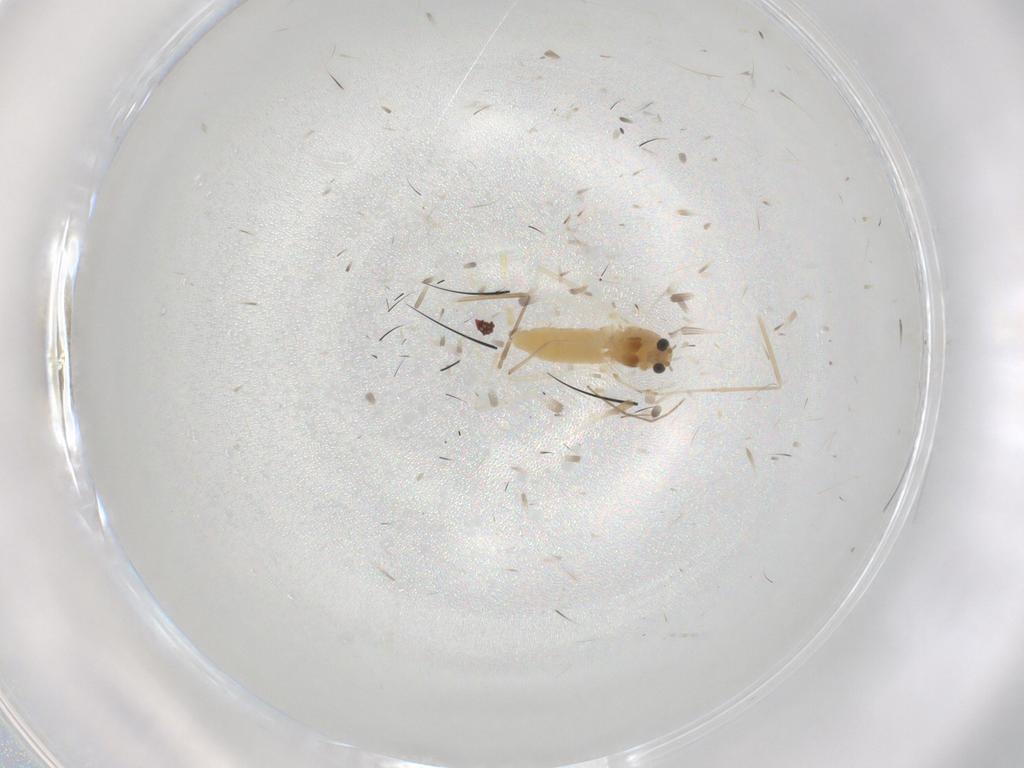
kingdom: Animalia
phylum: Arthropoda
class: Insecta
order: Diptera
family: Chironomidae
